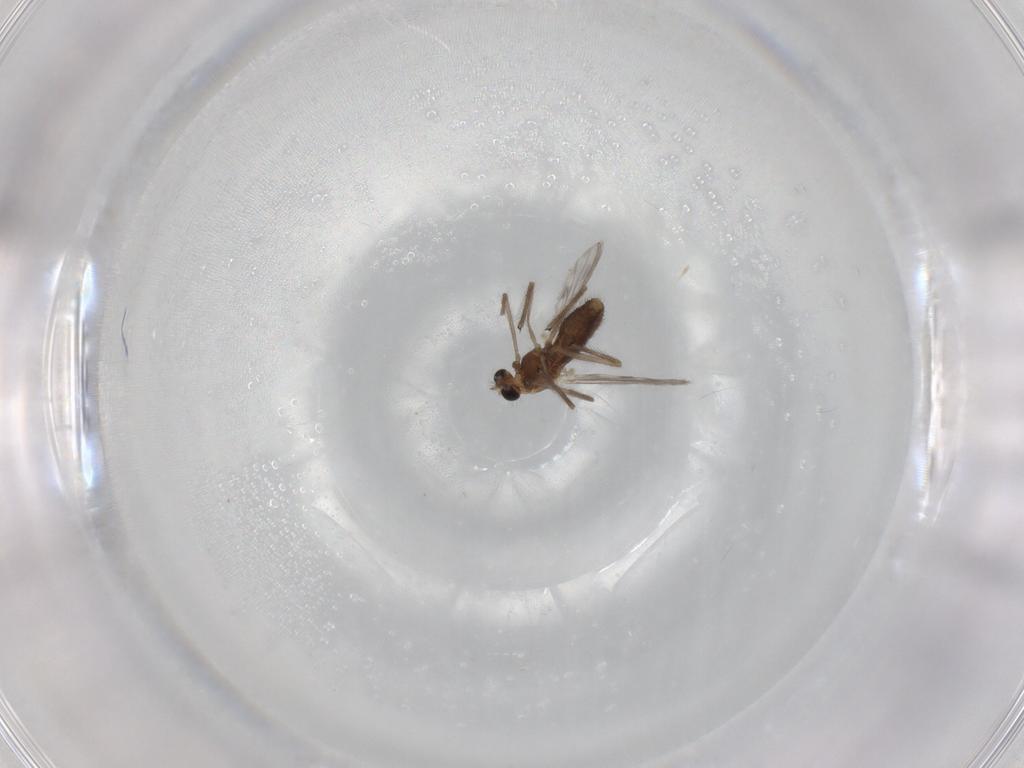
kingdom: Animalia
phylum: Arthropoda
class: Insecta
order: Diptera
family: Chironomidae
